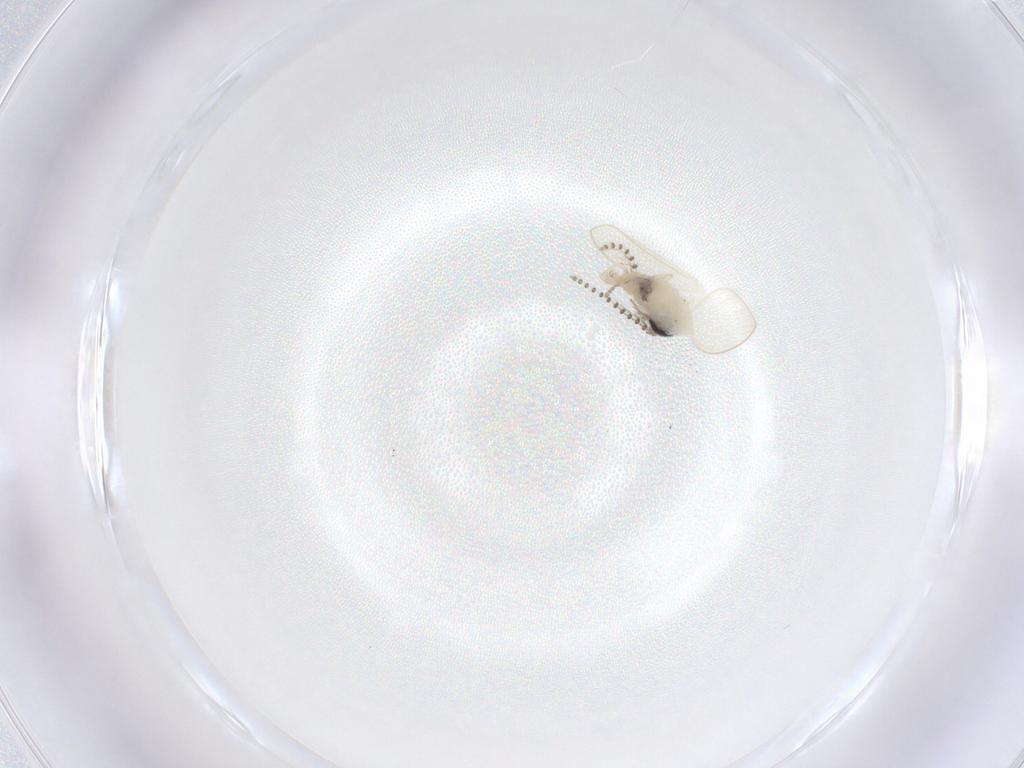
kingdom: Animalia
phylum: Arthropoda
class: Insecta
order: Diptera
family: Psychodidae
